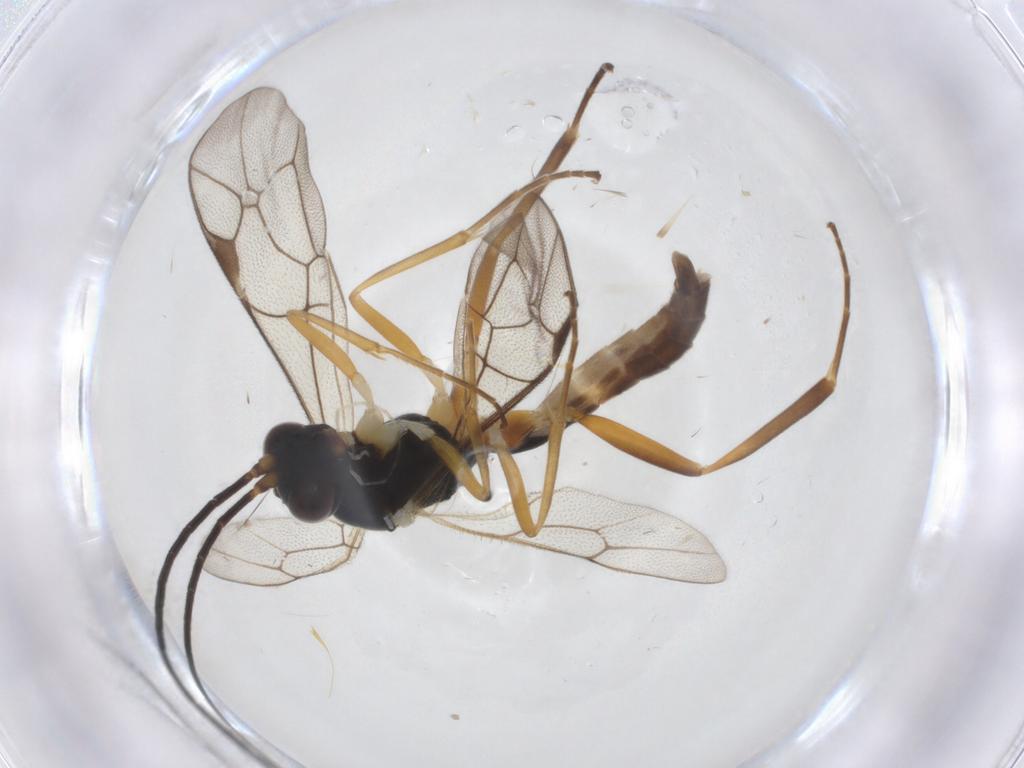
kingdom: Animalia
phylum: Arthropoda
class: Insecta
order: Hymenoptera
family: Ichneumonidae
